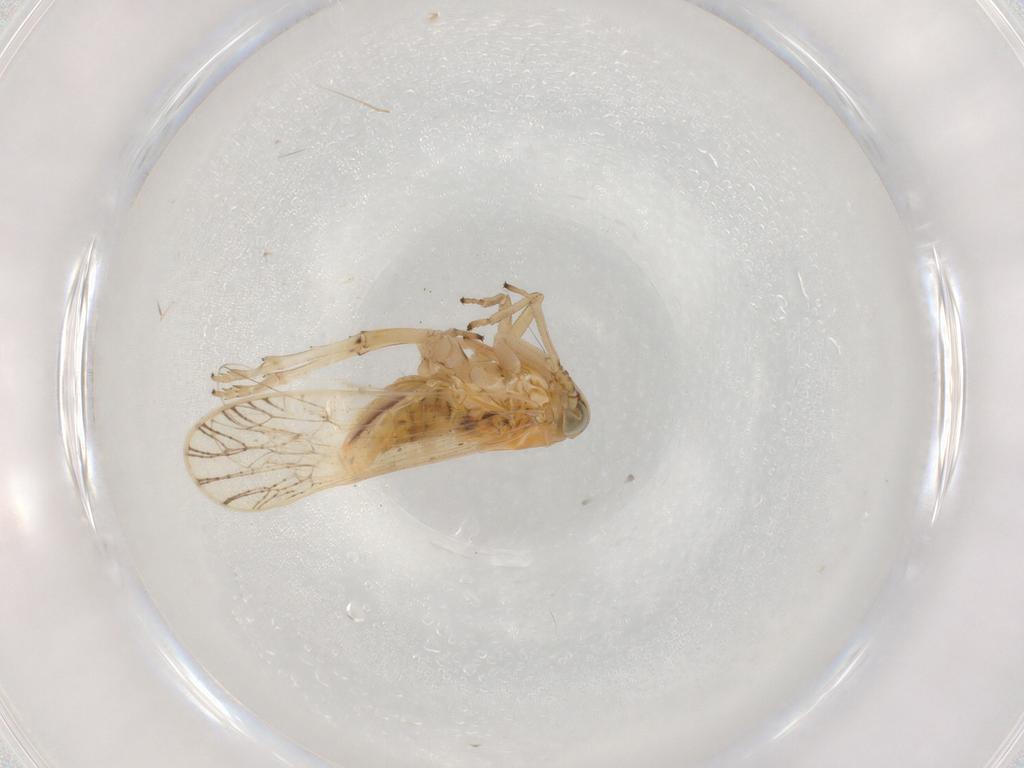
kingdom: Animalia
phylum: Arthropoda
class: Insecta
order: Hemiptera
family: Delphacidae
